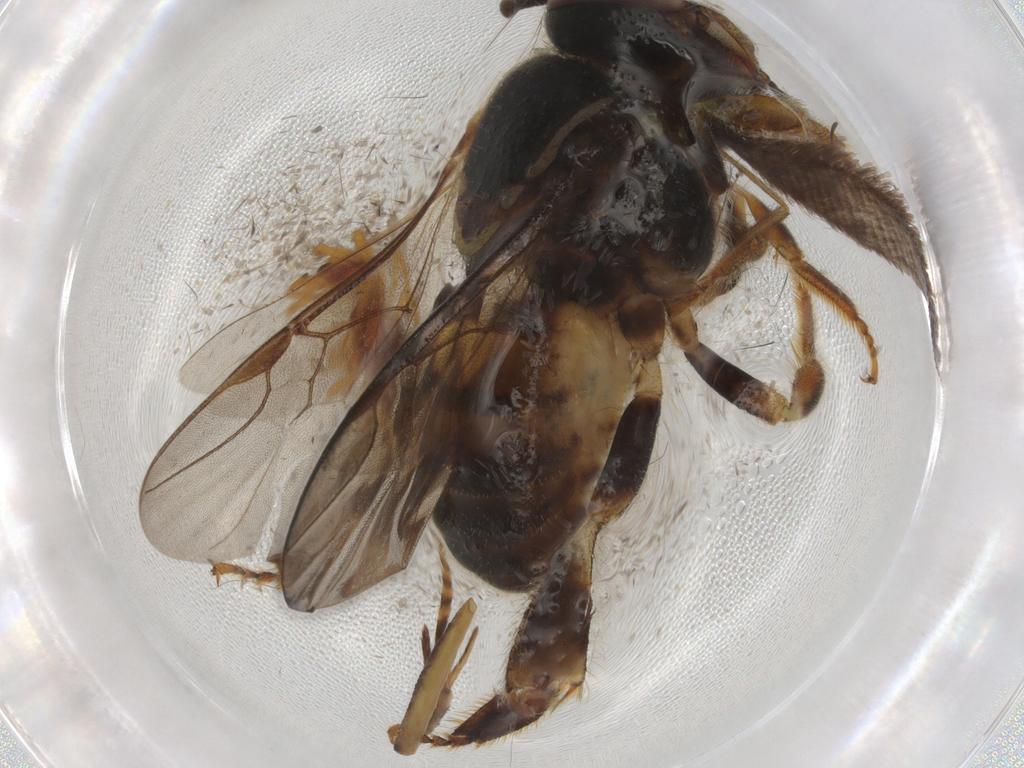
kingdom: Animalia
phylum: Arthropoda
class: Insecta
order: Hymenoptera
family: Apidae
